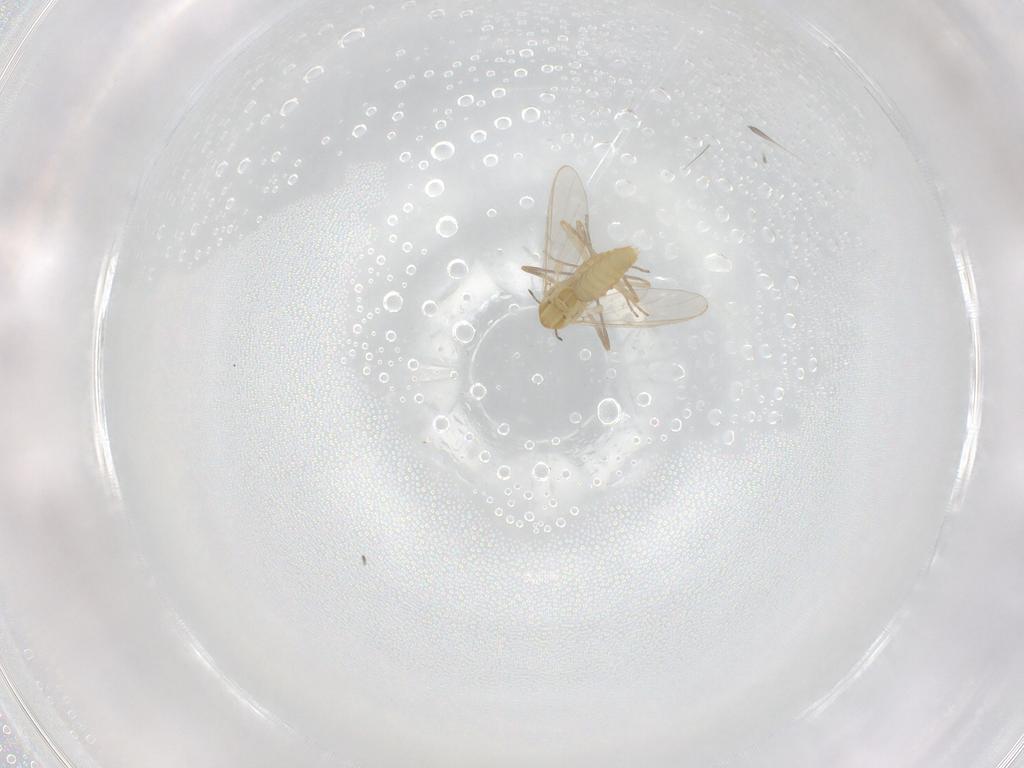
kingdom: Animalia
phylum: Arthropoda
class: Insecta
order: Diptera
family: Chironomidae
